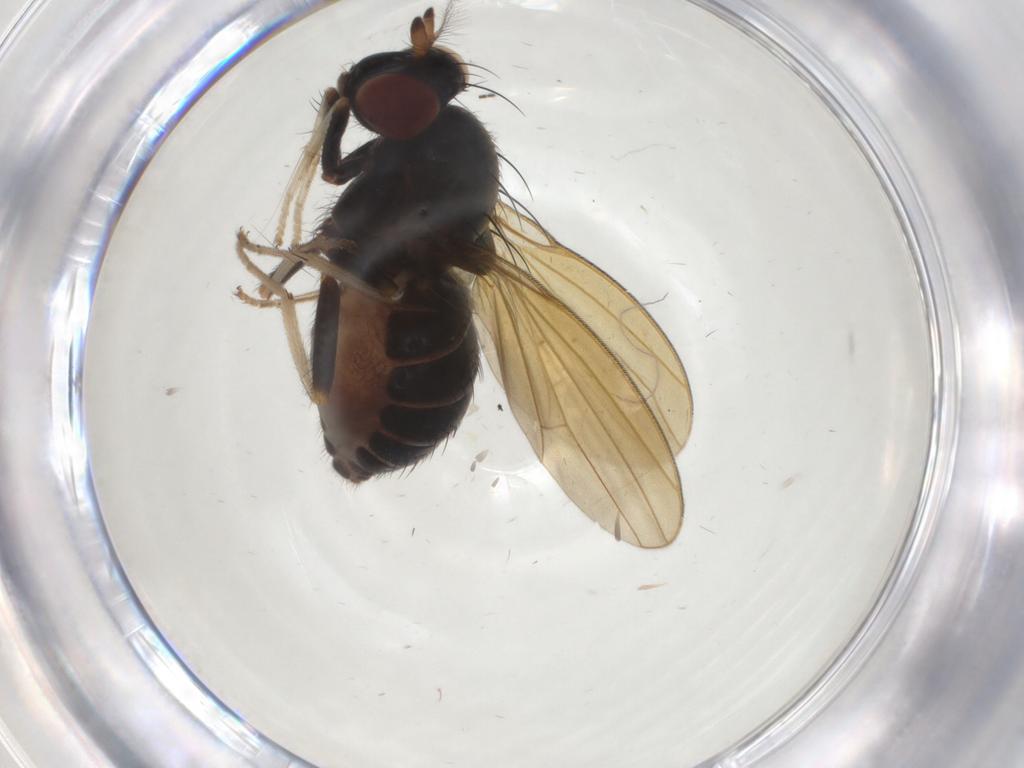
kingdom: Animalia
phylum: Arthropoda
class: Insecta
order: Diptera
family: Lauxaniidae
